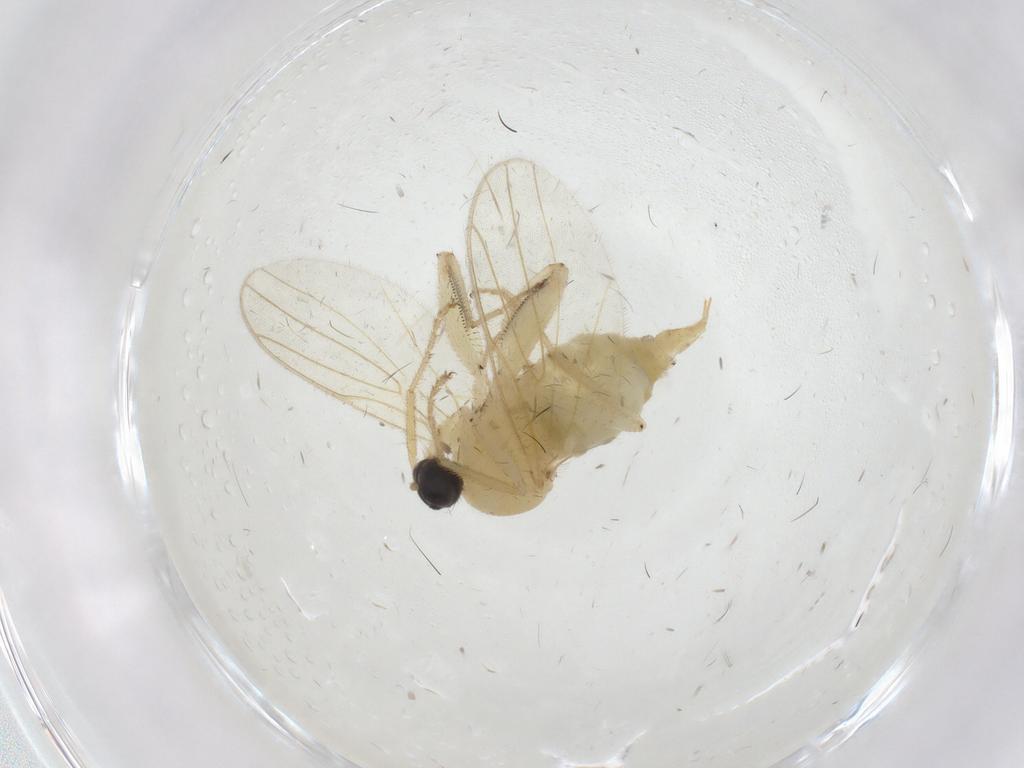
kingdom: Animalia
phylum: Arthropoda
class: Insecta
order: Diptera
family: Hybotidae
